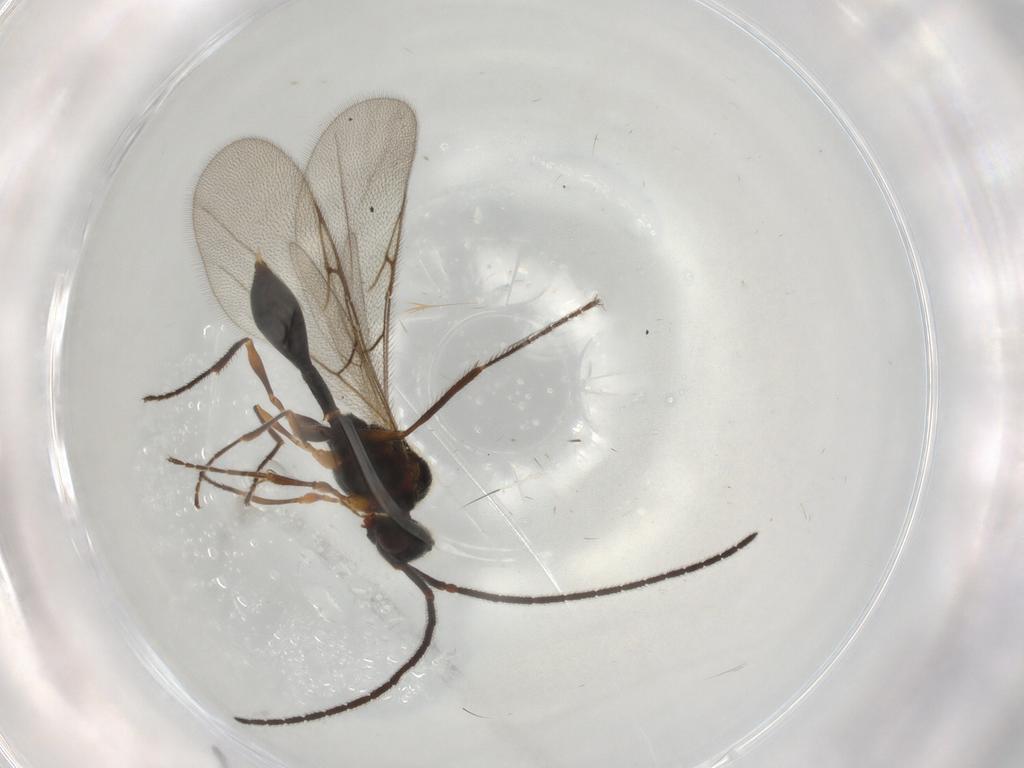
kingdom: Animalia
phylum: Arthropoda
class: Insecta
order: Hymenoptera
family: Diapriidae
